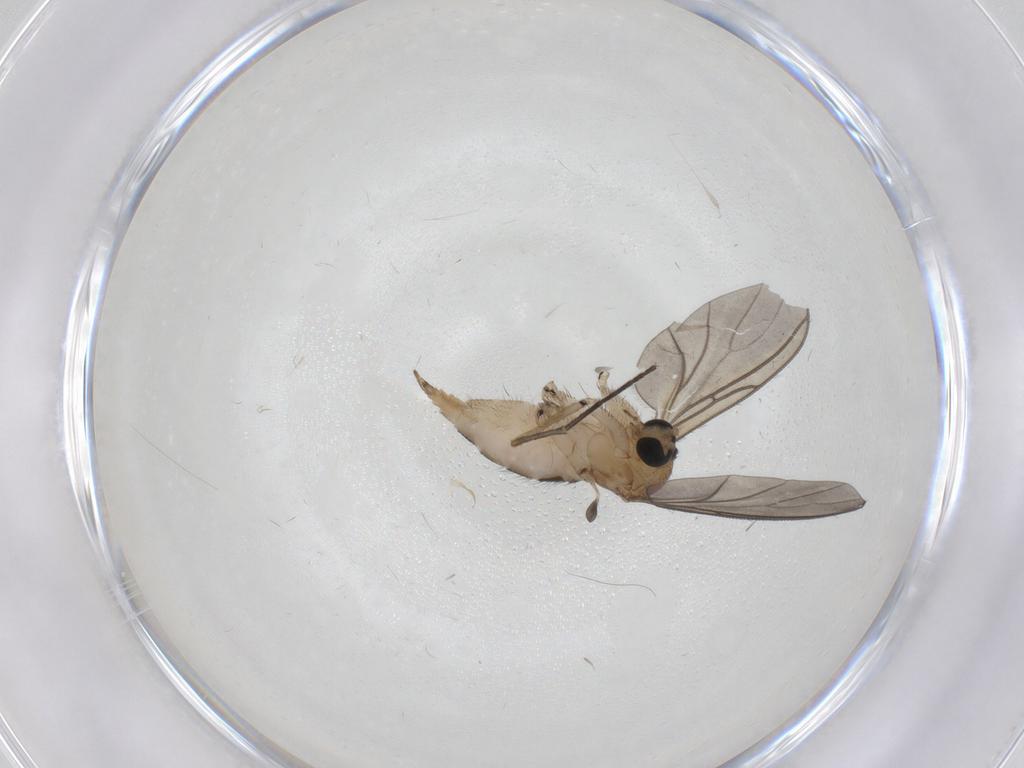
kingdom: Animalia
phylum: Arthropoda
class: Insecta
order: Diptera
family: Sciaridae
